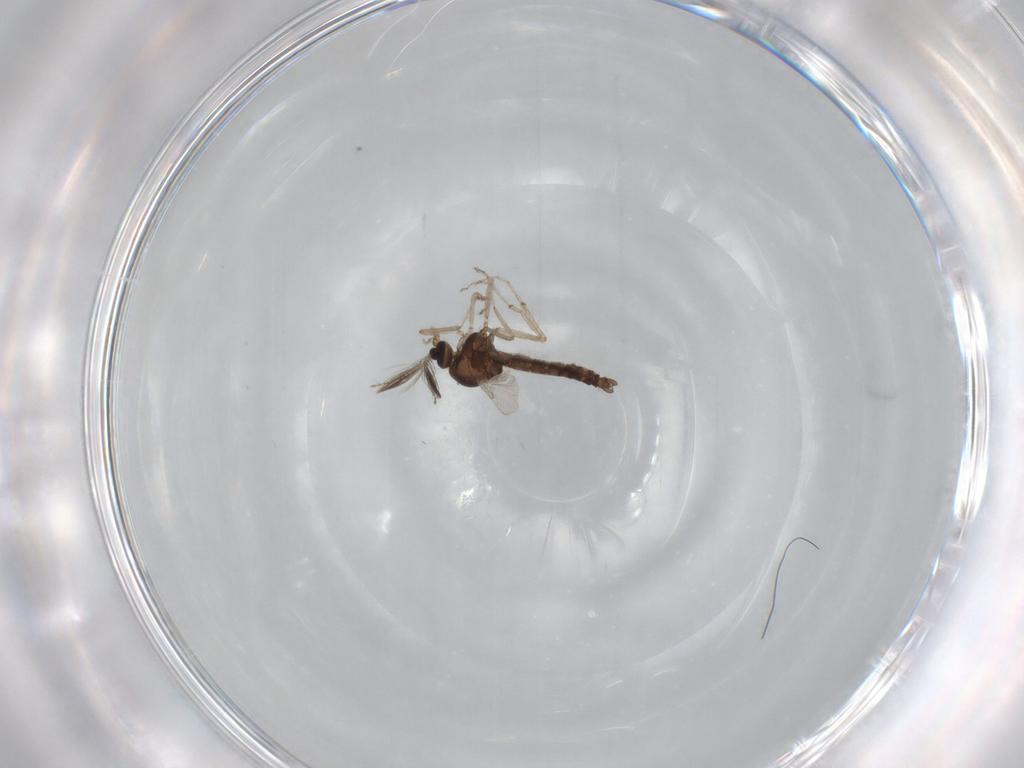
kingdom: Animalia
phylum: Arthropoda
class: Insecta
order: Diptera
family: Ceratopogonidae
